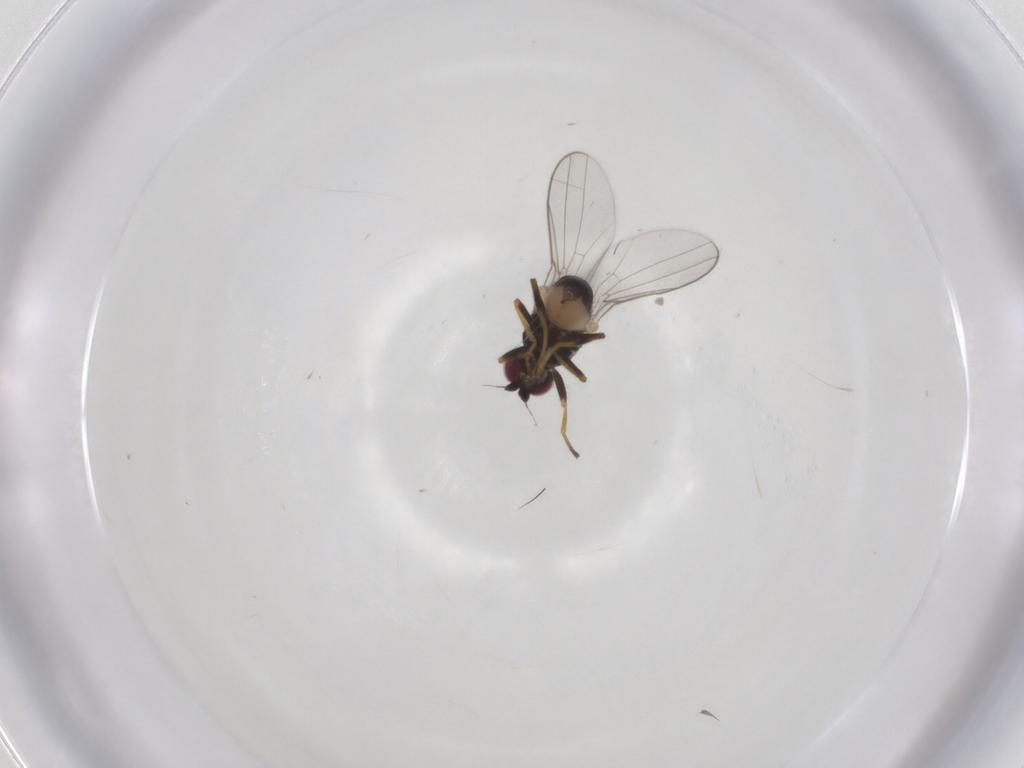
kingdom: Animalia
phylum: Arthropoda
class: Insecta
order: Diptera
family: Chloropidae
